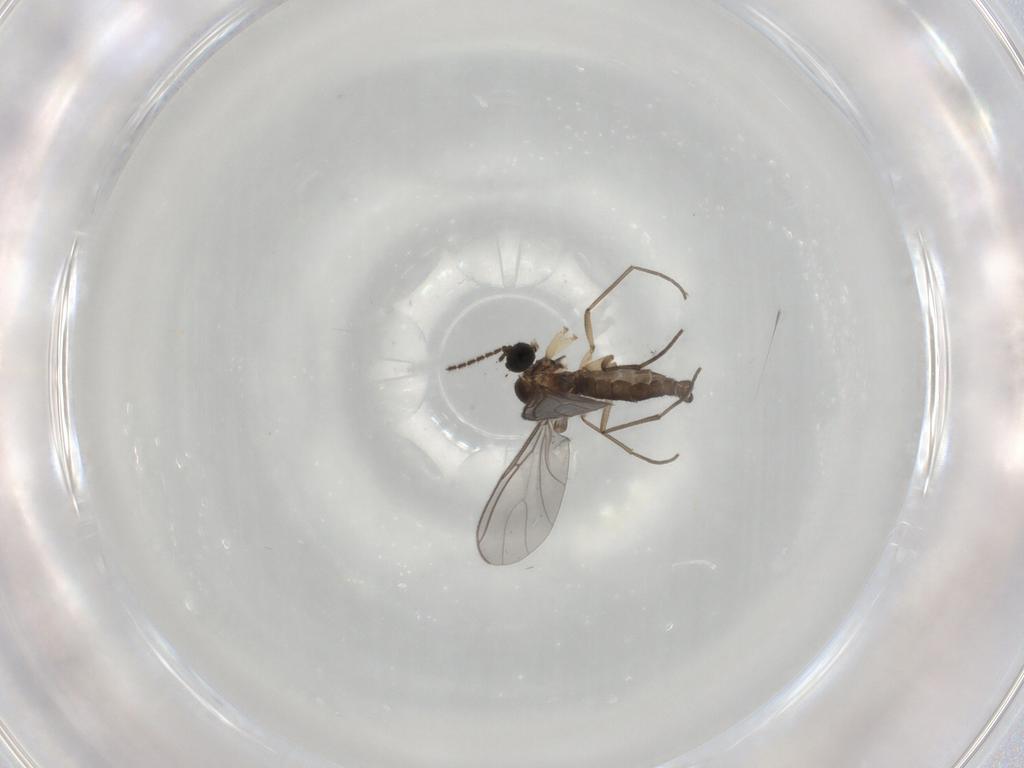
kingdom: Animalia
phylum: Arthropoda
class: Insecta
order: Diptera
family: Sciaridae
